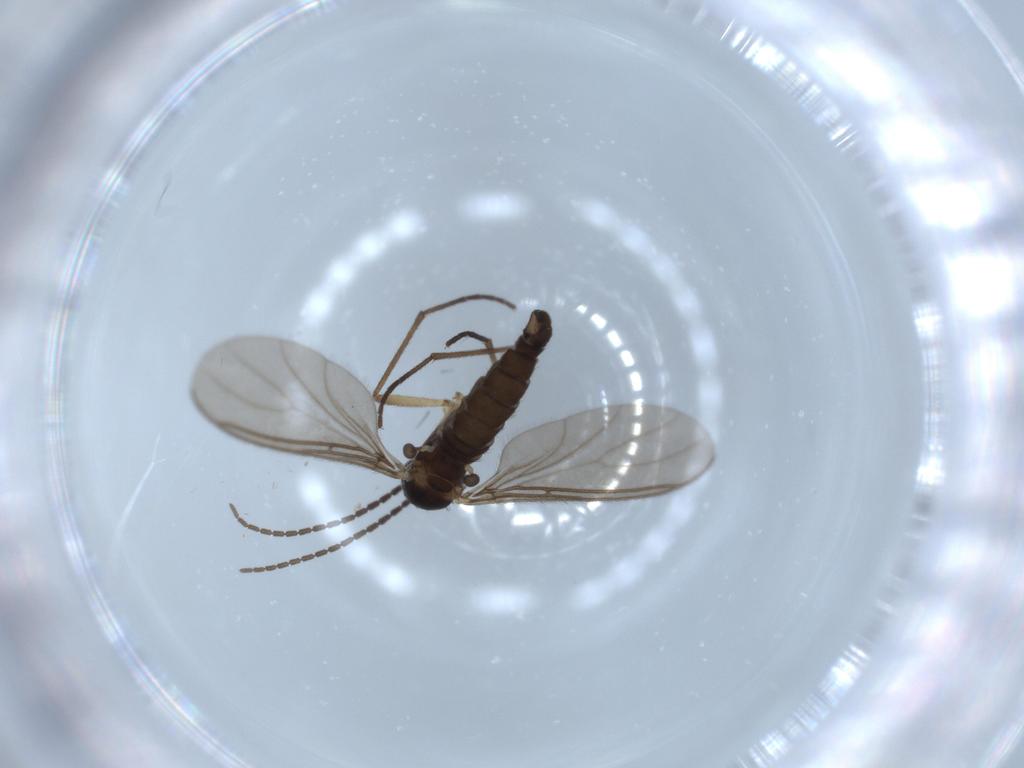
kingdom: Animalia
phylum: Arthropoda
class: Insecta
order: Diptera
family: Sciaridae
